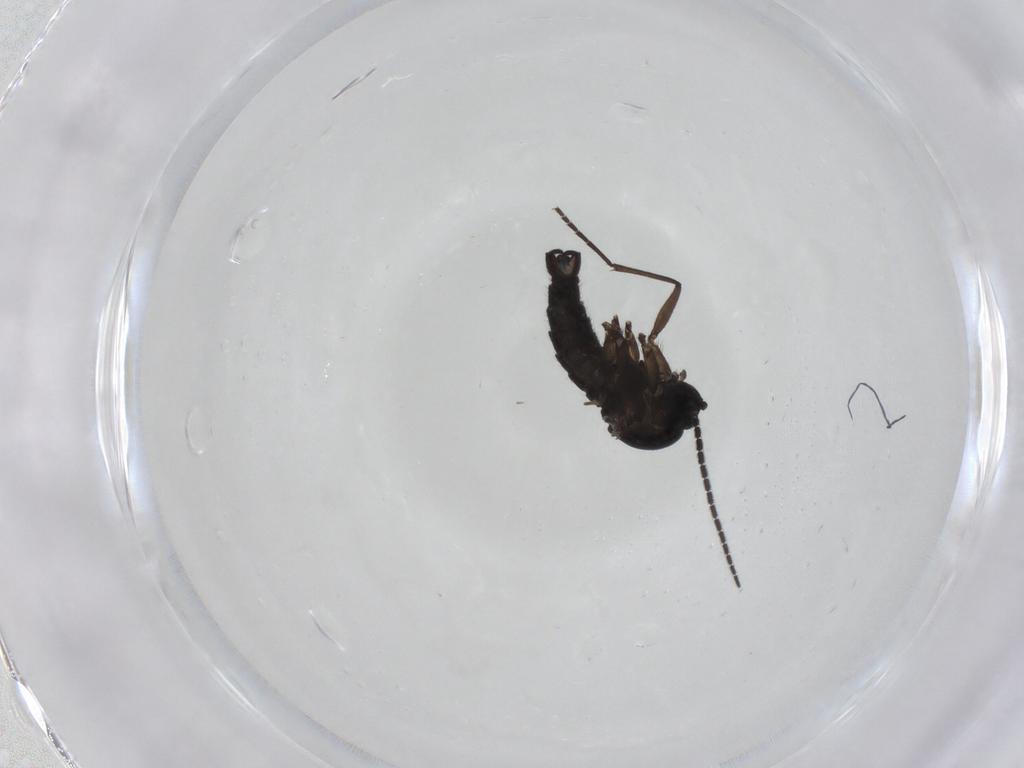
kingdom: Animalia
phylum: Arthropoda
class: Insecta
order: Diptera
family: Sciaridae
